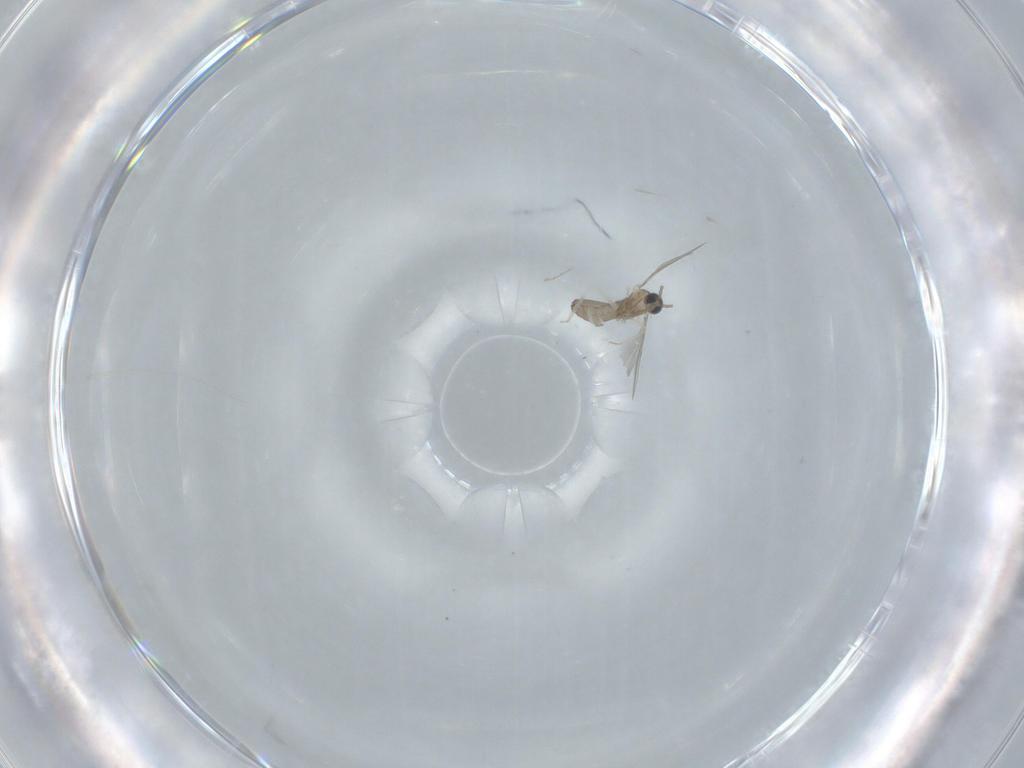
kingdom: Animalia
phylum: Arthropoda
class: Insecta
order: Diptera
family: Cecidomyiidae
